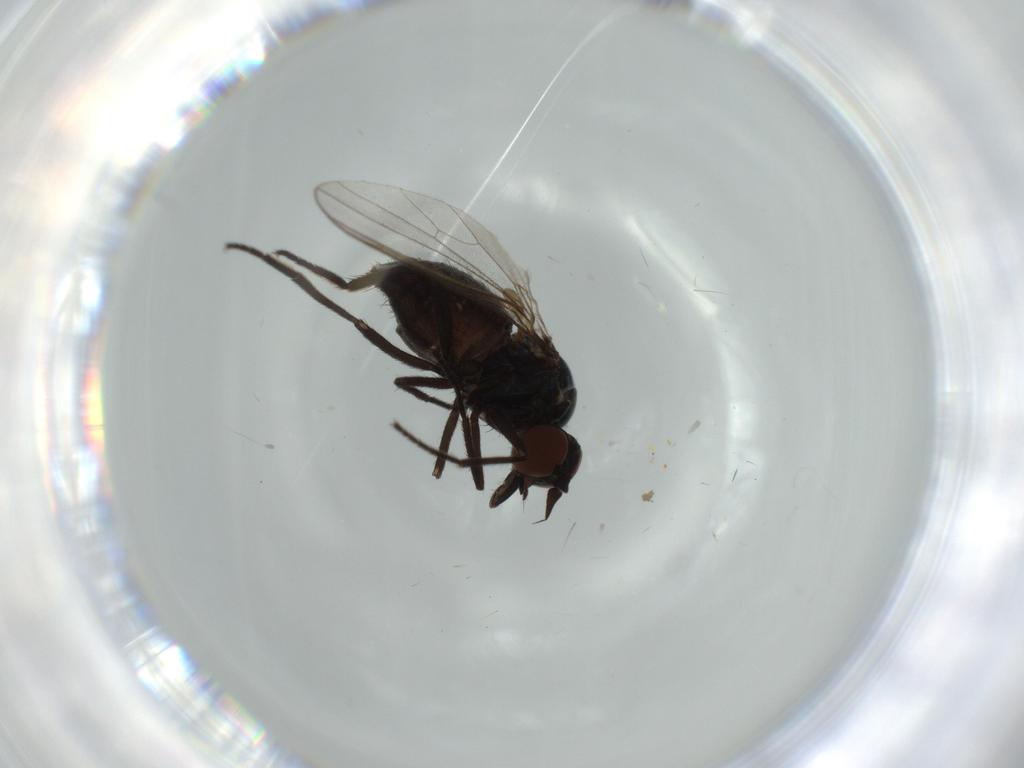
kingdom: Animalia
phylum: Arthropoda
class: Insecta
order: Diptera
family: Dolichopodidae
